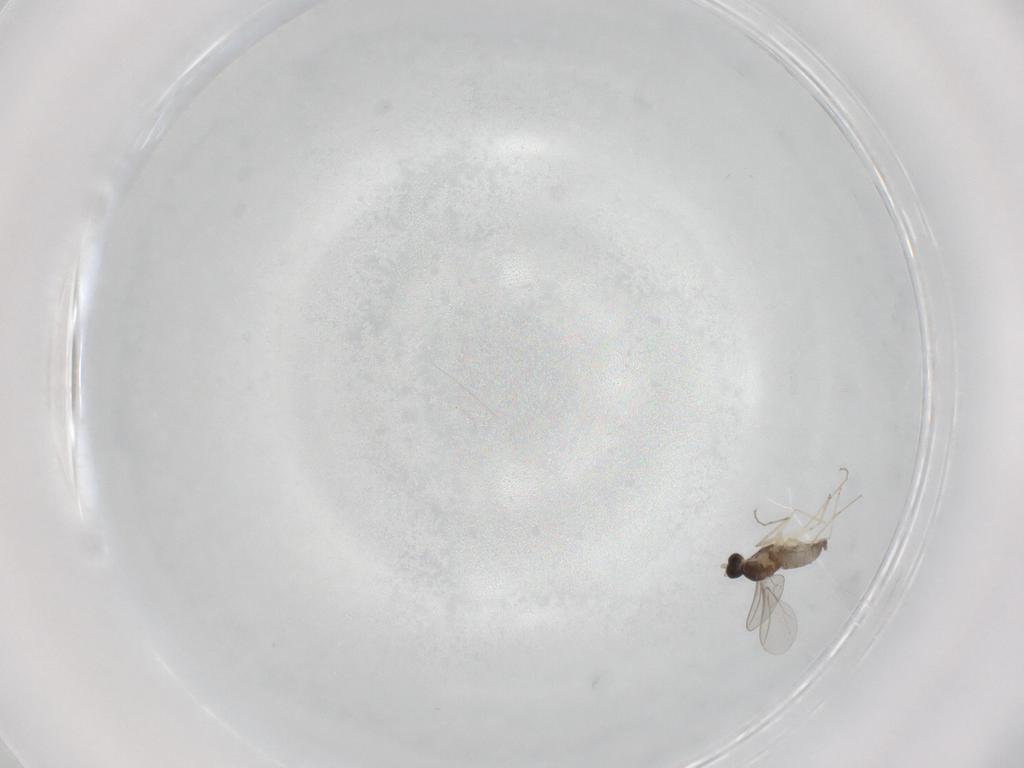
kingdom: Animalia
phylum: Arthropoda
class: Insecta
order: Diptera
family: Cecidomyiidae
